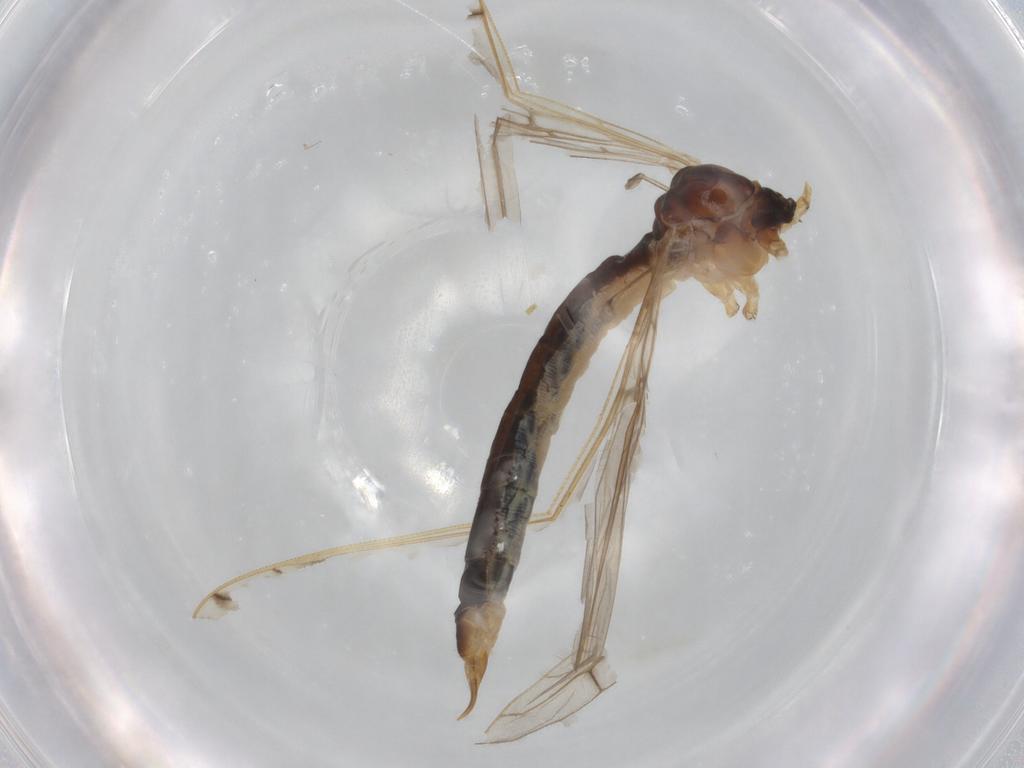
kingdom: Animalia
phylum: Arthropoda
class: Insecta
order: Diptera
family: Limoniidae
